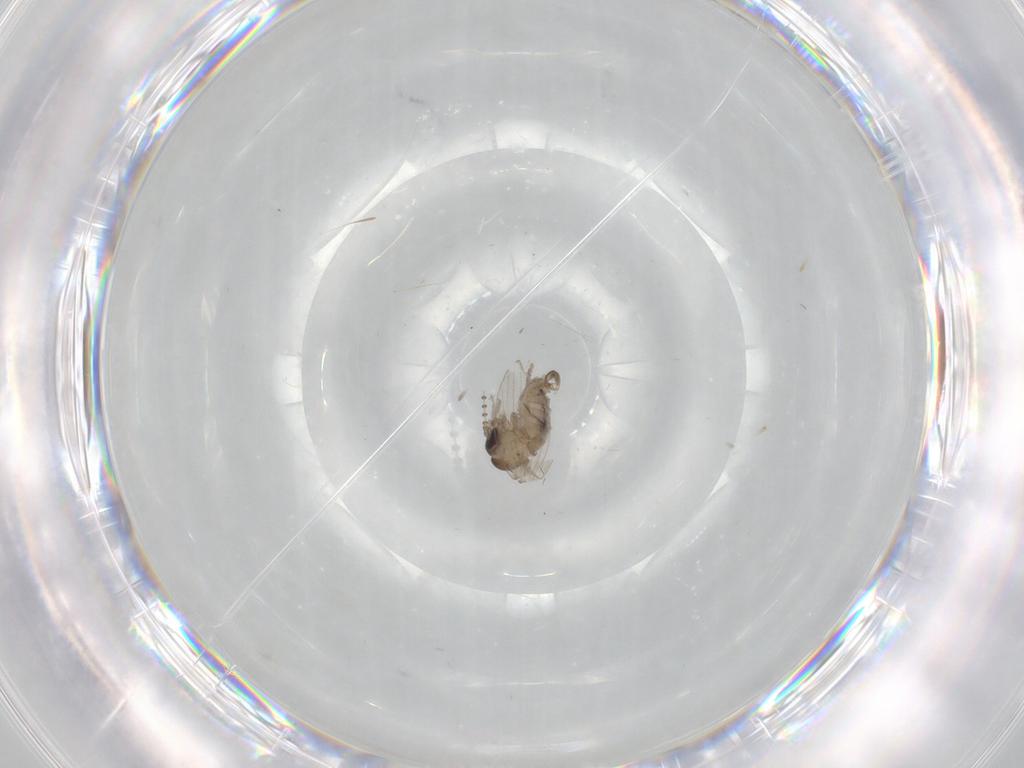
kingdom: Animalia
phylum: Arthropoda
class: Insecta
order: Diptera
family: Psychodidae
